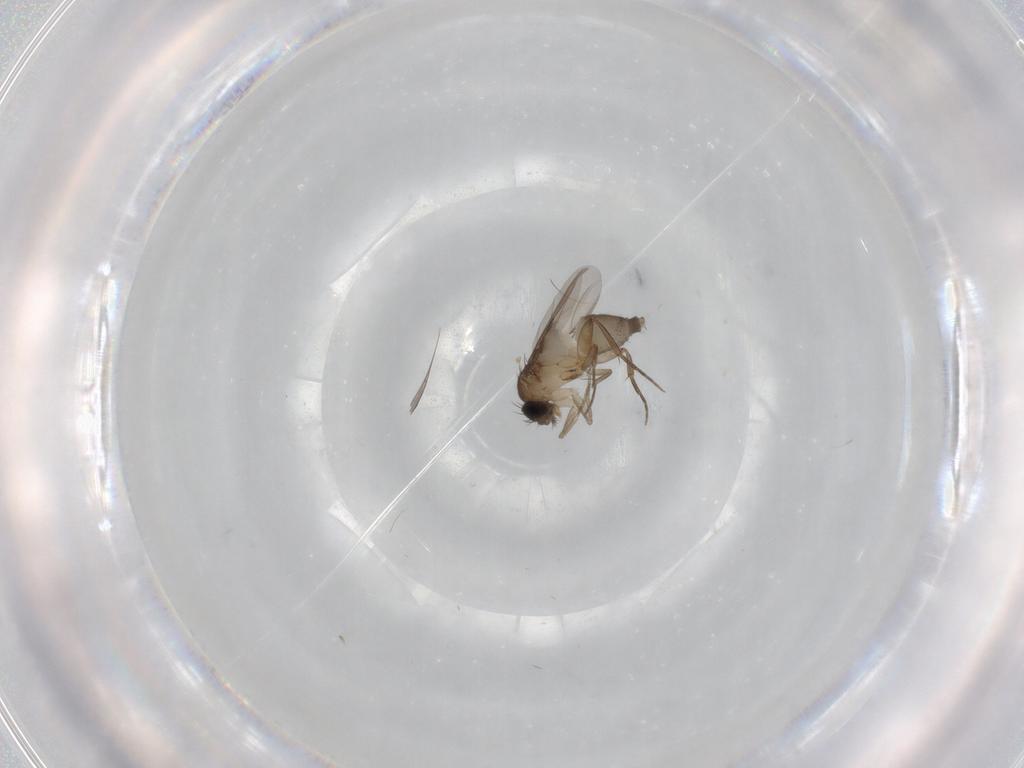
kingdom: Animalia
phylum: Arthropoda
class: Insecta
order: Diptera
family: Phoridae
